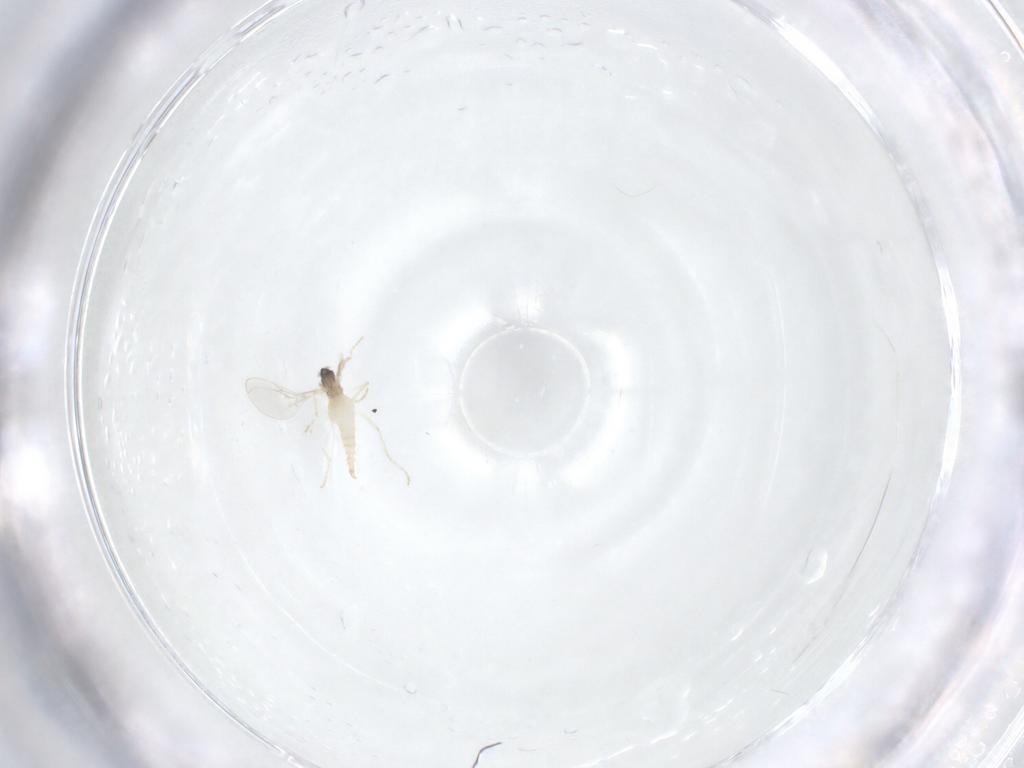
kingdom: Animalia
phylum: Arthropoda
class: Insecta
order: Diptera
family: Cecidomyiidae
